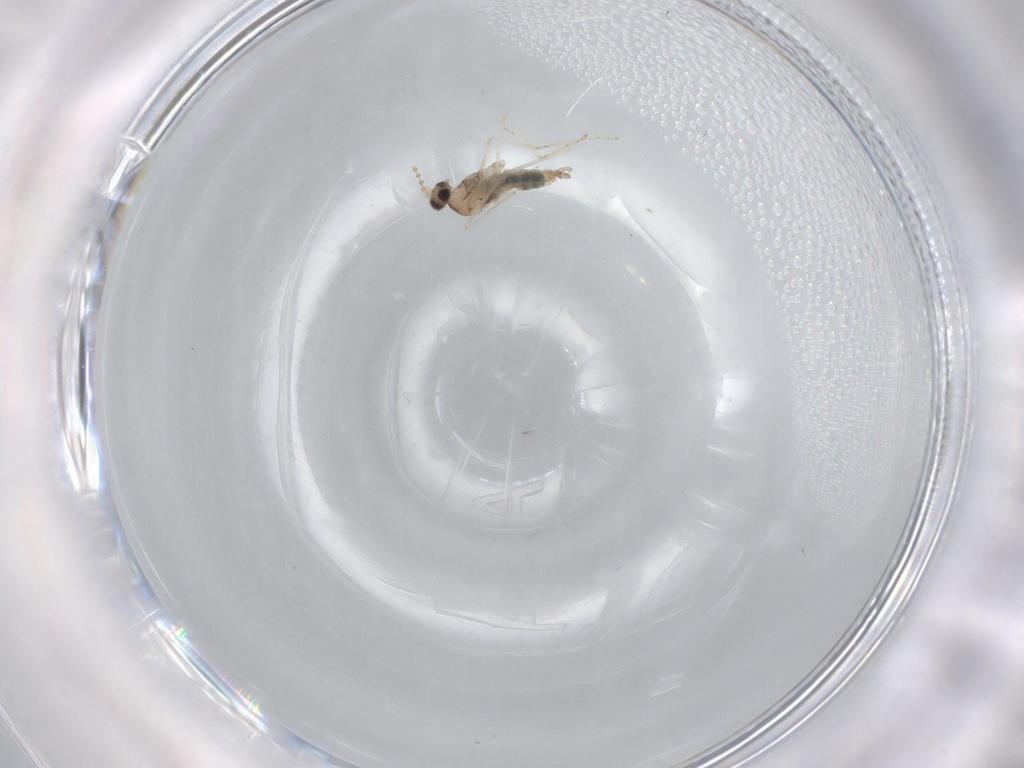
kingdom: Animalia
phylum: Arthropoda
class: Insecta
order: Diptera
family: Cecidomyiidae
